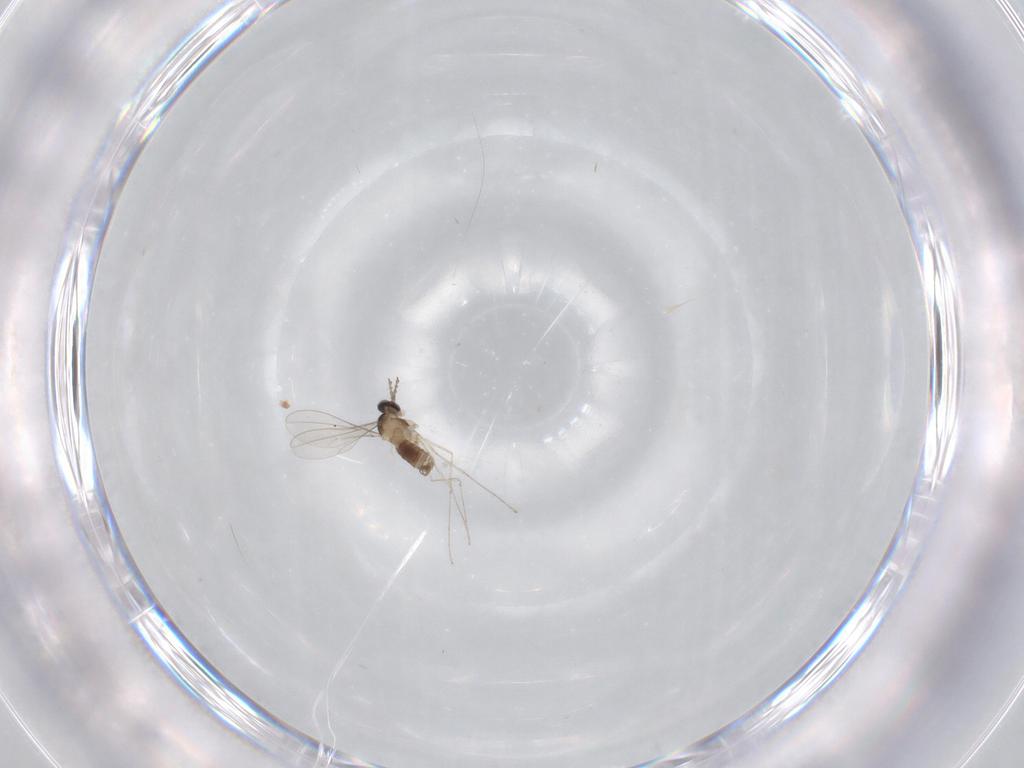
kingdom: Animalia
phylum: Arthropoda
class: Insecta
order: Diptera
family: Cecidomyiidae
